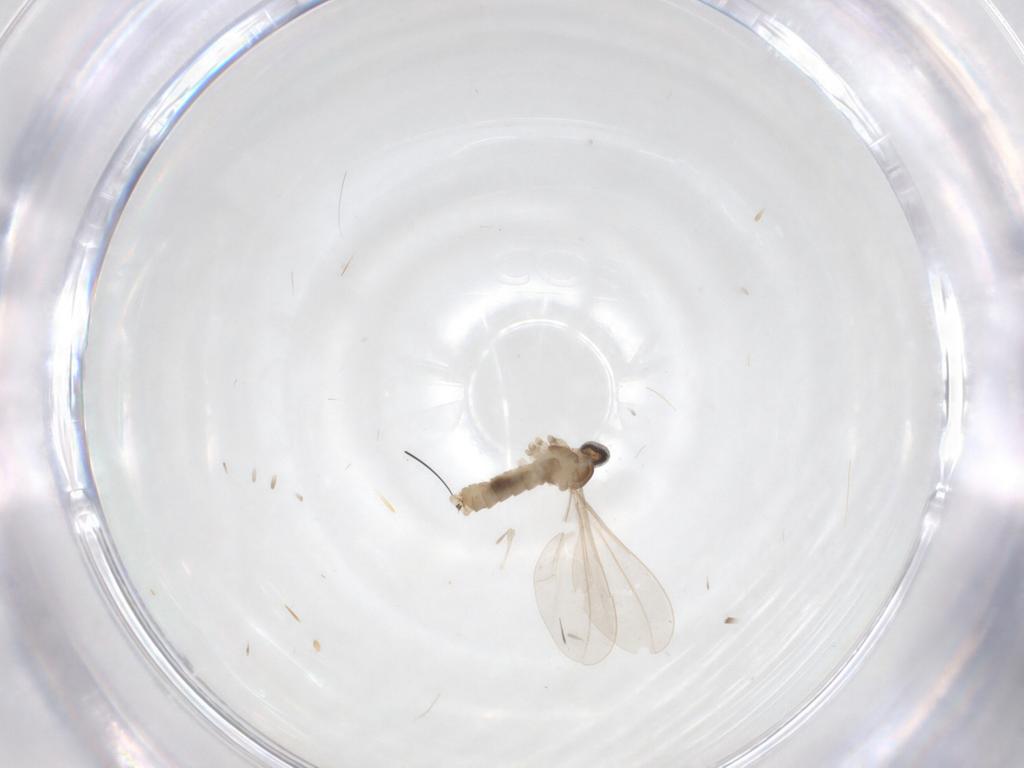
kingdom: Animalia
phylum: Arthropoda
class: Insecta
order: Diptera
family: Cecidomyiidae
